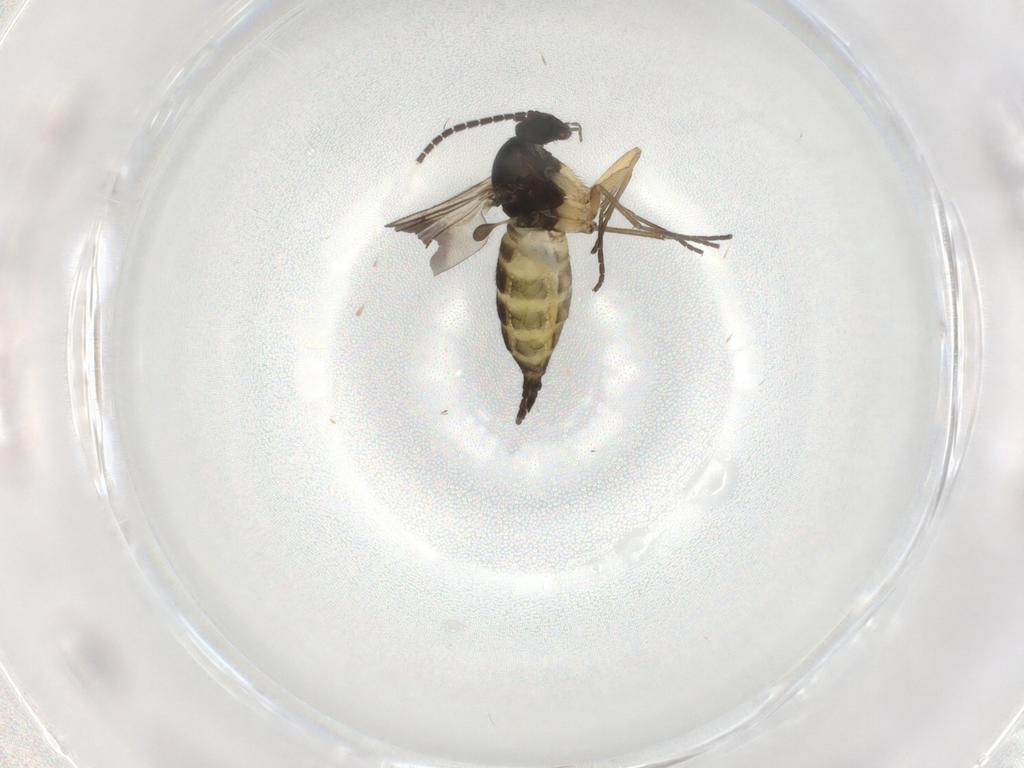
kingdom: Animalia
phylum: Arthropoda
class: Insecta
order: Diptera
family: Sciaridae
